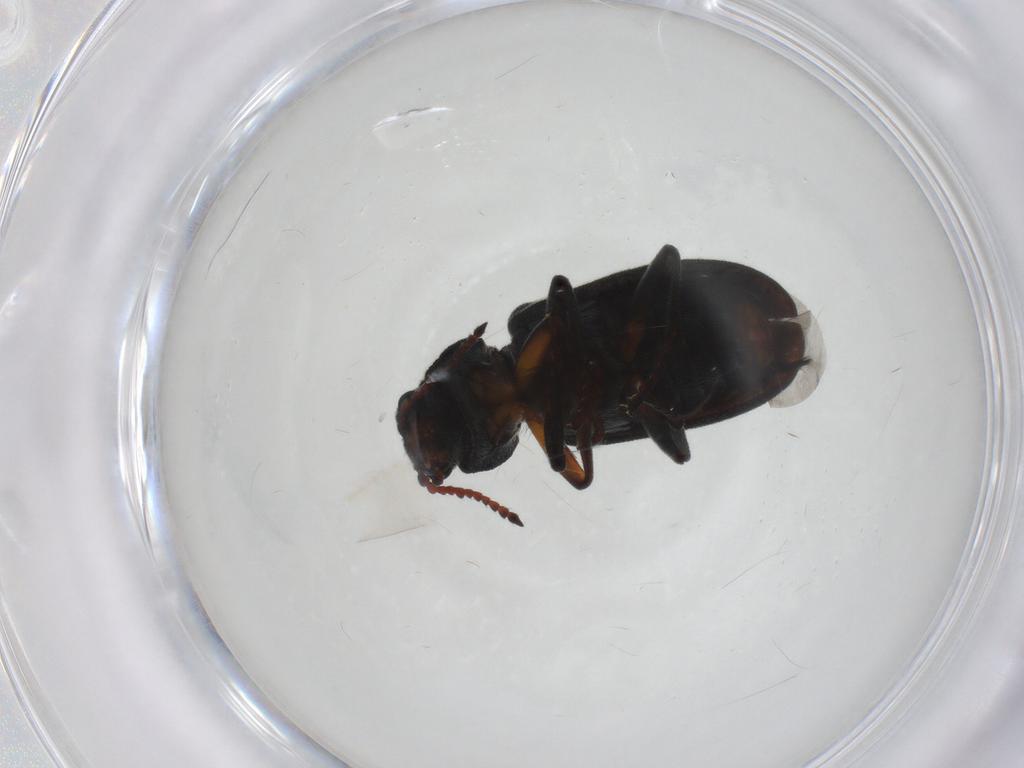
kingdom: Animalia
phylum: Arthropoda
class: Insecta
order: Coleoptera
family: Melyridae
